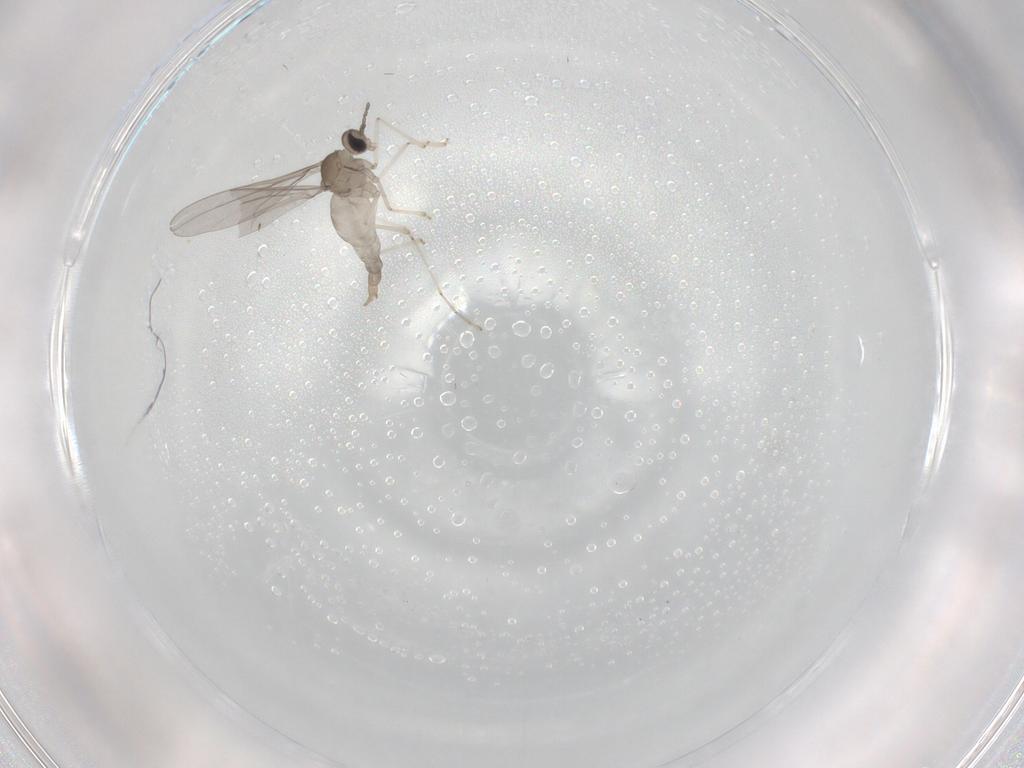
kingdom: Animalia
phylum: Arthropoda
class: Insecta
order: Diptera
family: Cecidomyiidae
